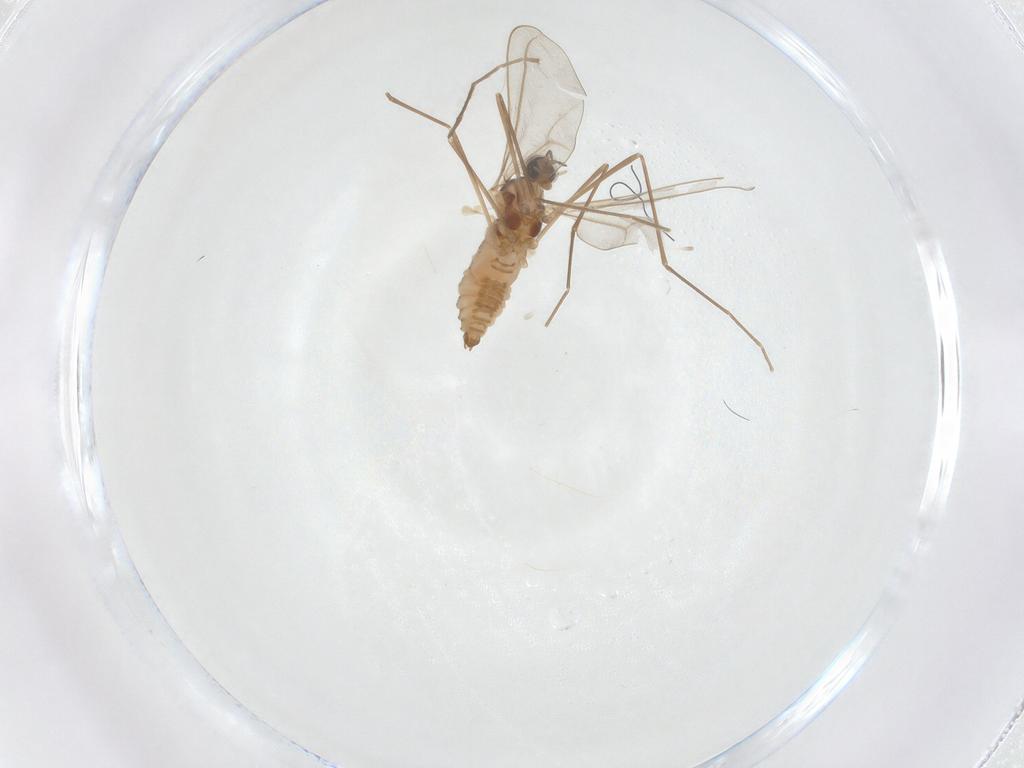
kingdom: Animalia
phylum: Arthropoda
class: Insecta
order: Diptera
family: Cecidomyiidae
